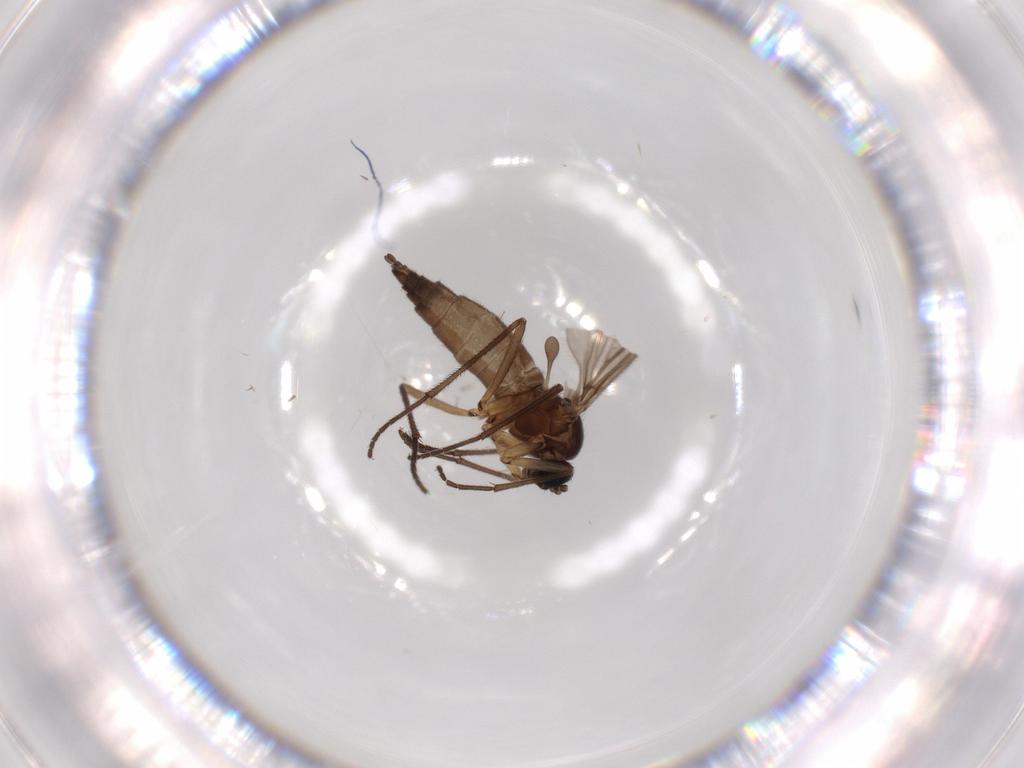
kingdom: Animalia
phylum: Arthropoda
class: Insecta
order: Diptera
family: Sciaridae
